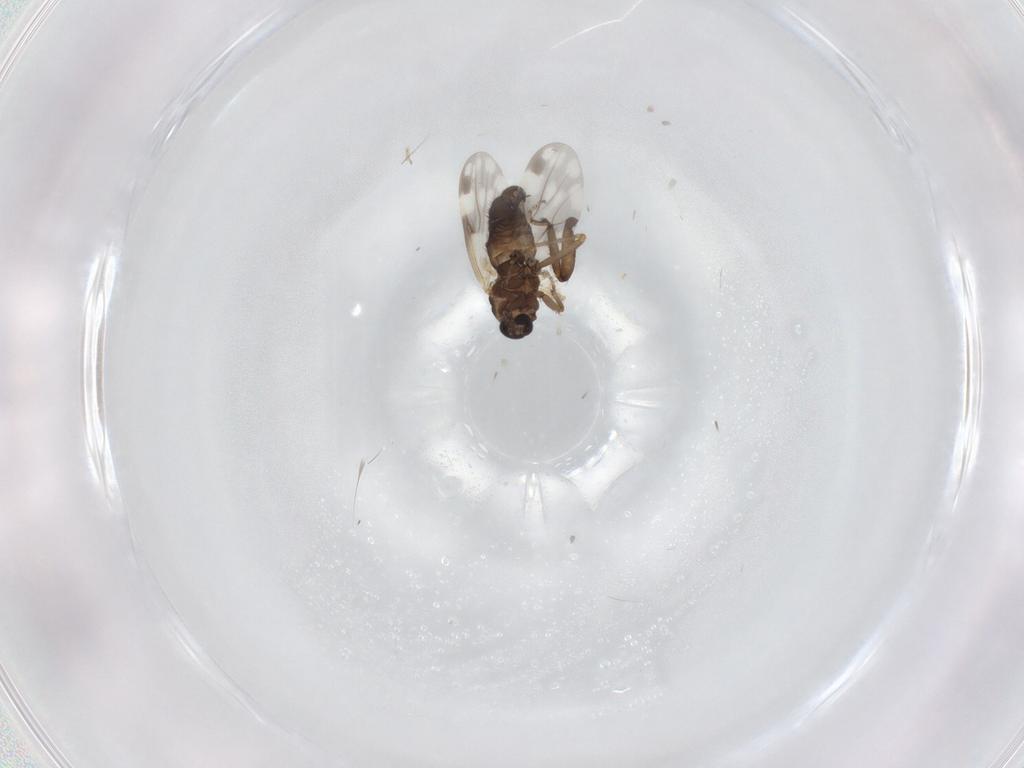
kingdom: Animalia
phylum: Arthropoda
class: Insecta
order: Diptera
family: Ceratopogonidae
